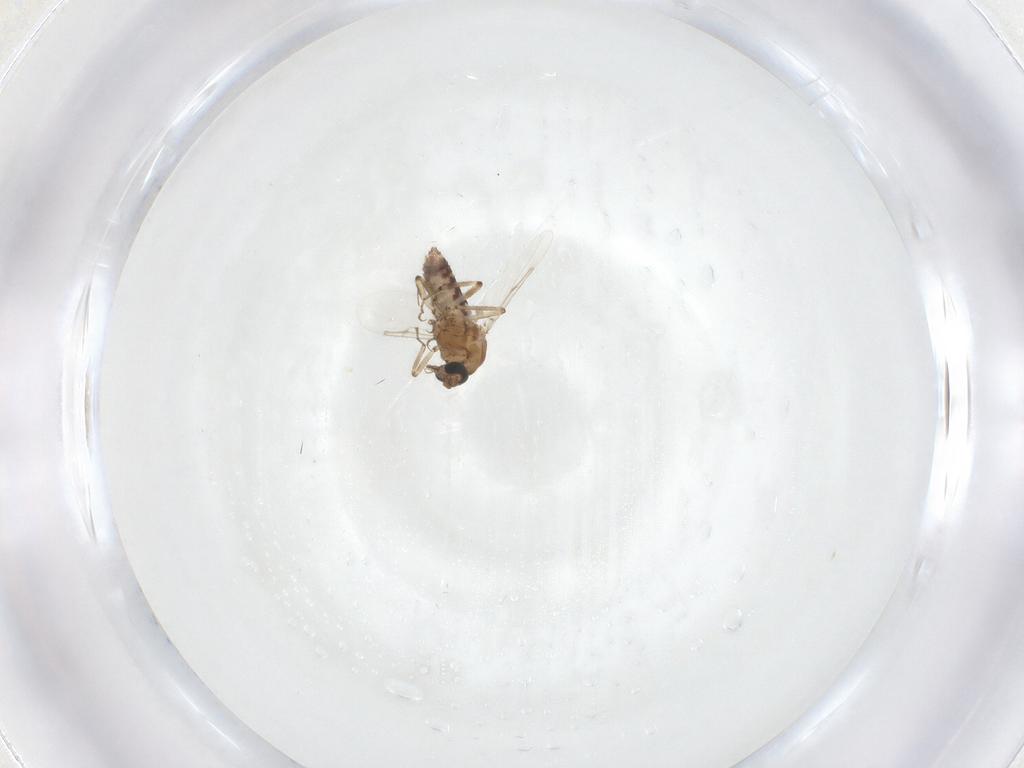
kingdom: Animalia
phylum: Arthropoda
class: Insecta
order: Diptera
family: Ceratopogonidae
